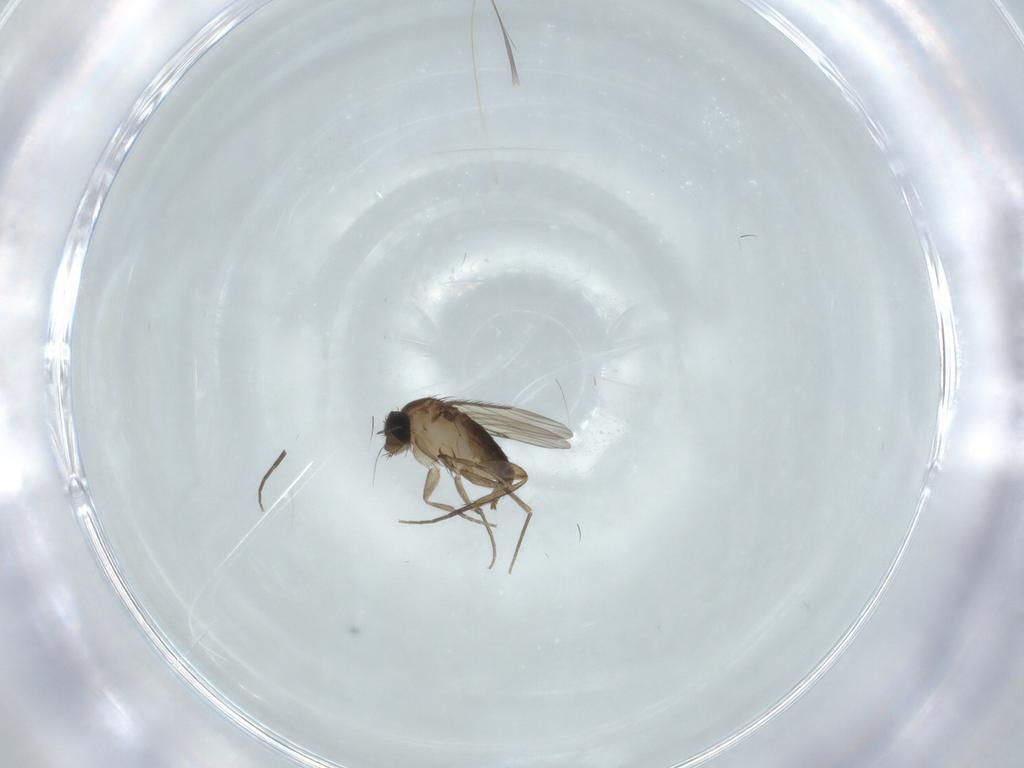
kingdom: Animalia
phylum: Arthropoda
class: Insecta
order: Diptera
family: Phoridae
